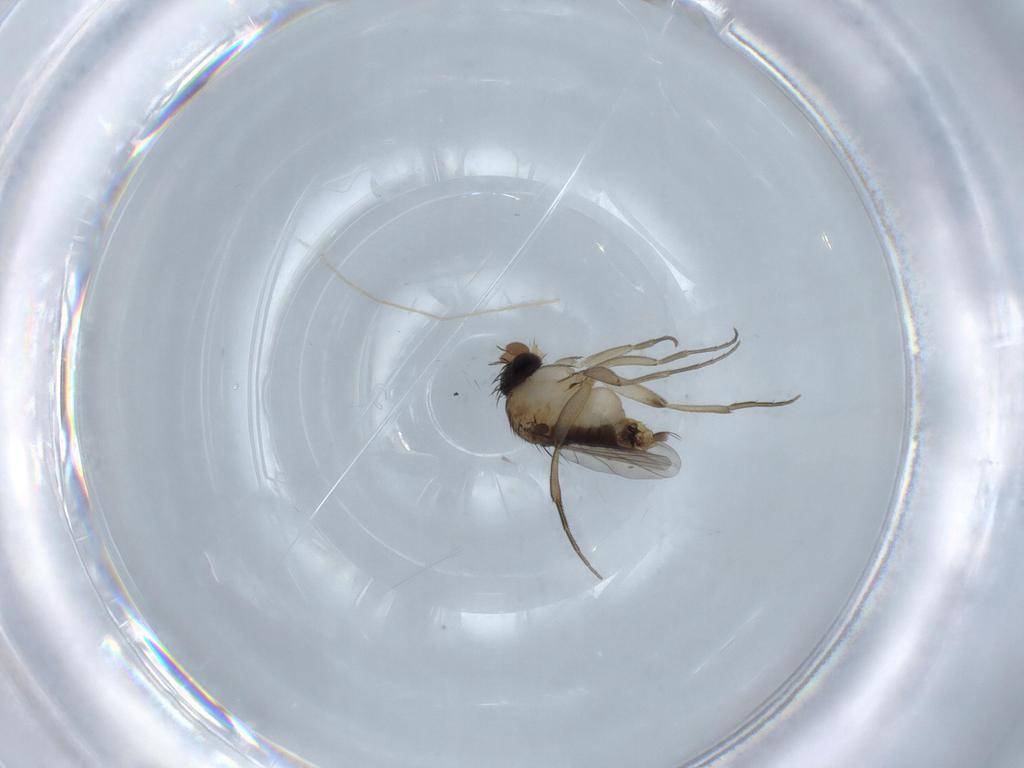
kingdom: Animalia
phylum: Arthropoda
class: Insecta
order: Diptera
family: Phoridae
